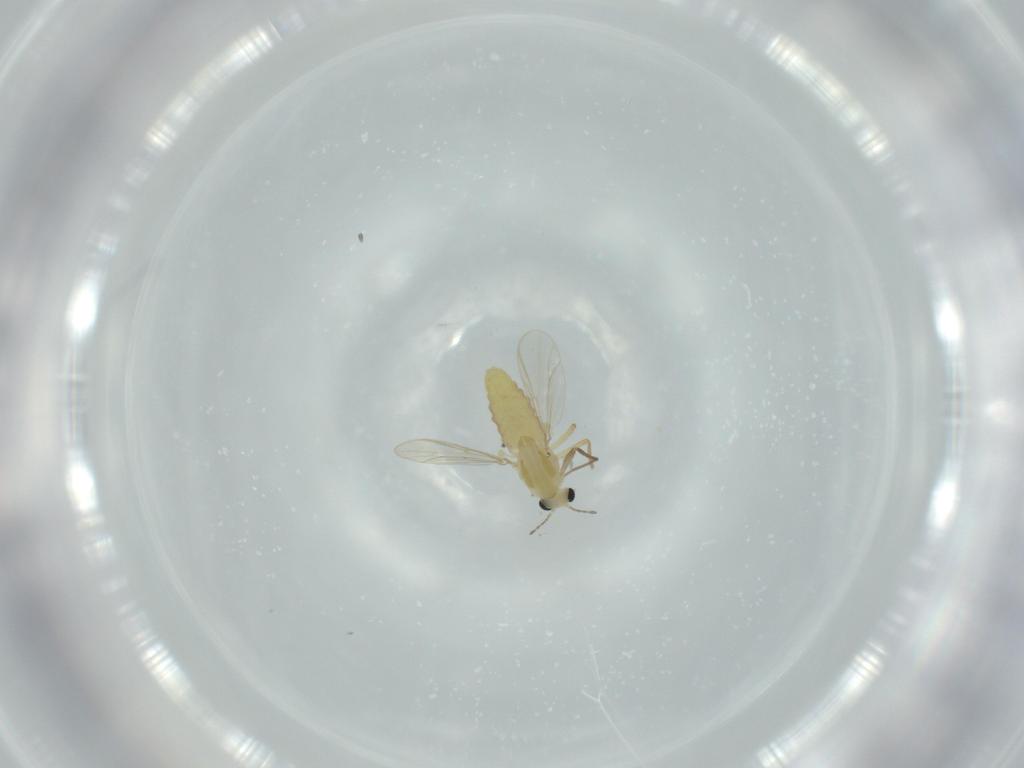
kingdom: Animalia
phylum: Arthropoda
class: Insecta
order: Diptera
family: Chironomidae
